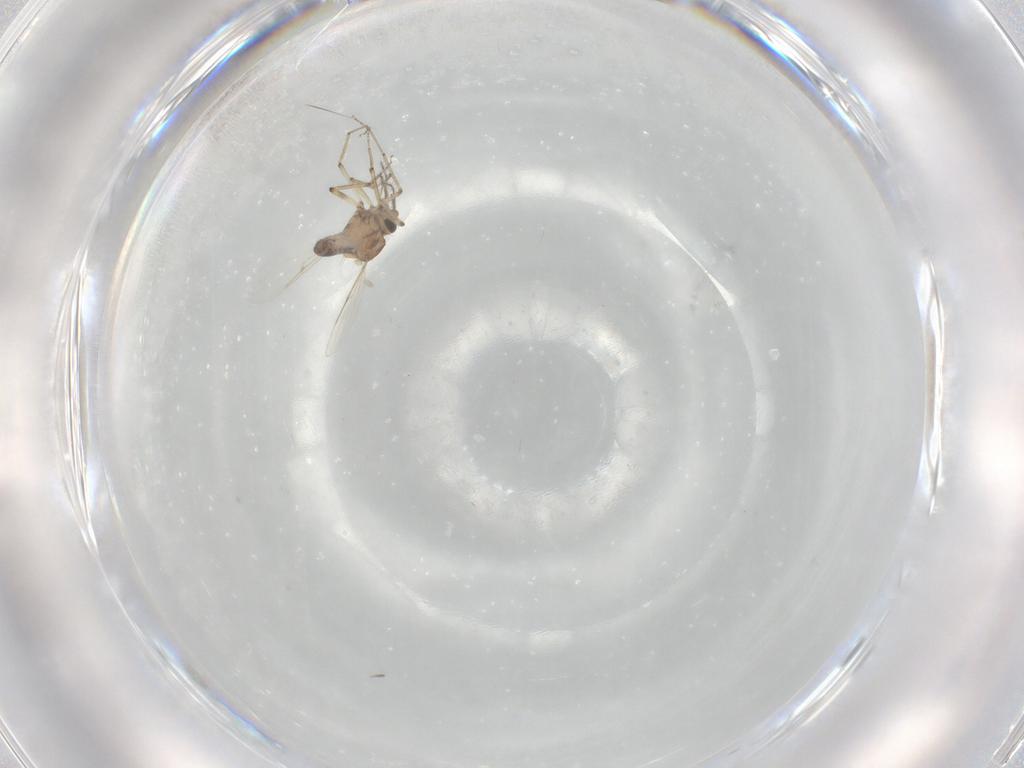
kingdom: Animalia
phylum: Arthropoda
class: Insecta
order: Diptera
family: Ceratopogonidae
